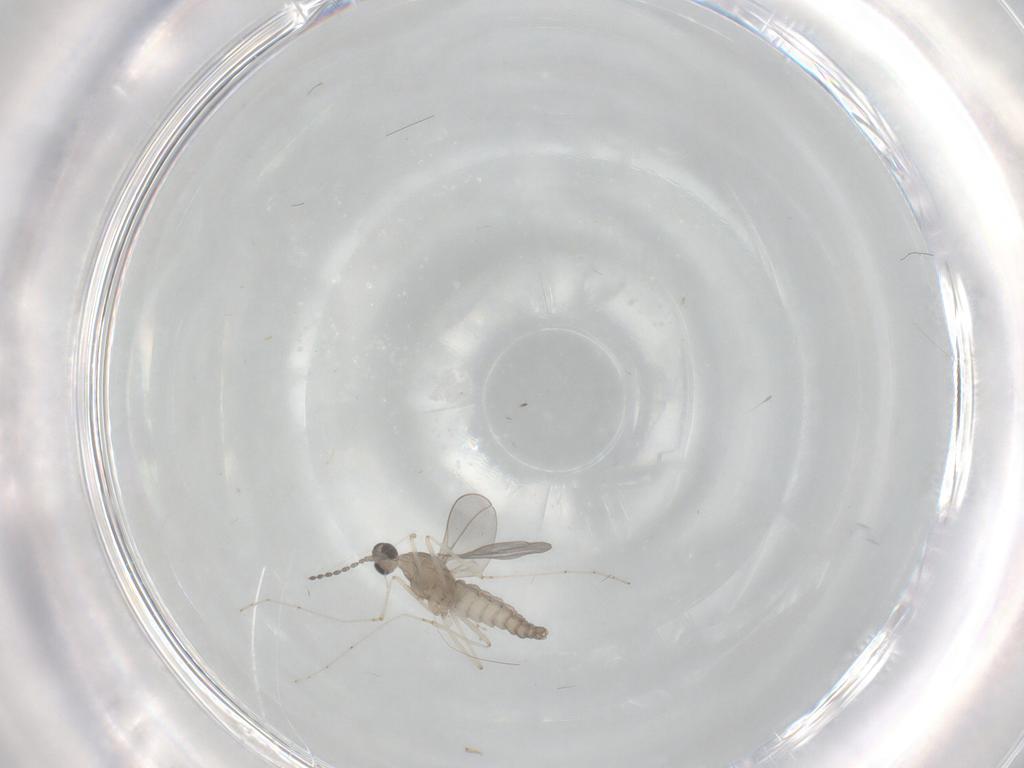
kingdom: Animalia
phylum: Arthropoda
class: Insecta
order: Diptera
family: Cecidomyiidae
